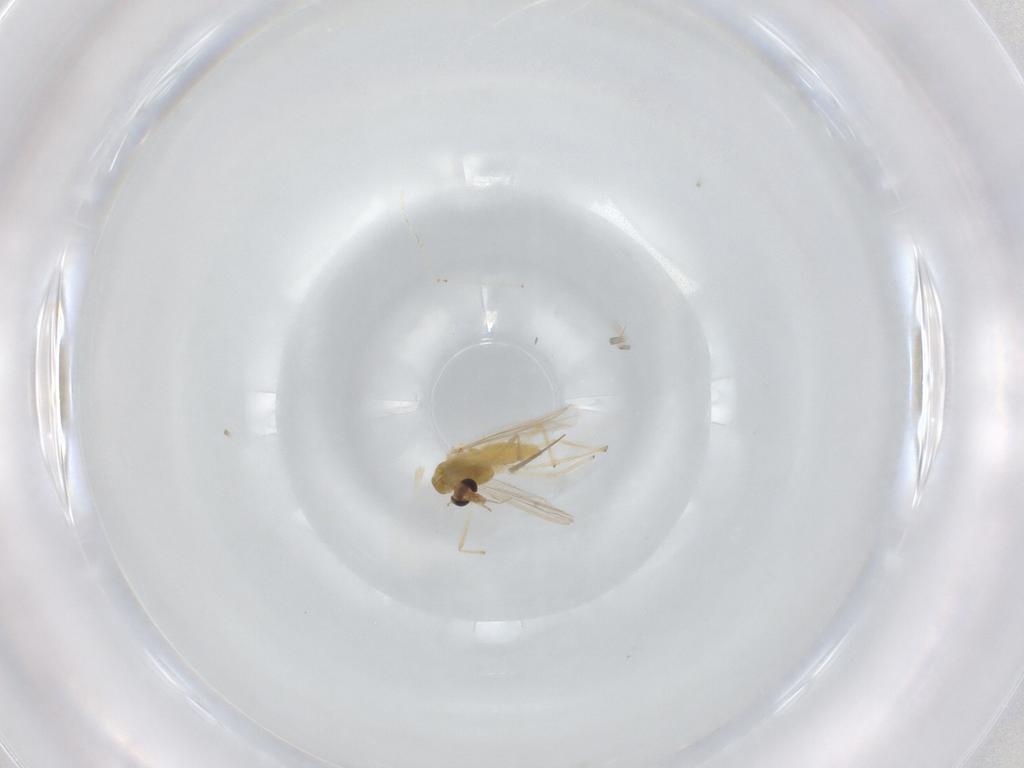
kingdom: Animalia
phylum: Arthropoda
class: Insecta
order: Diptera
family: Chironomidae
